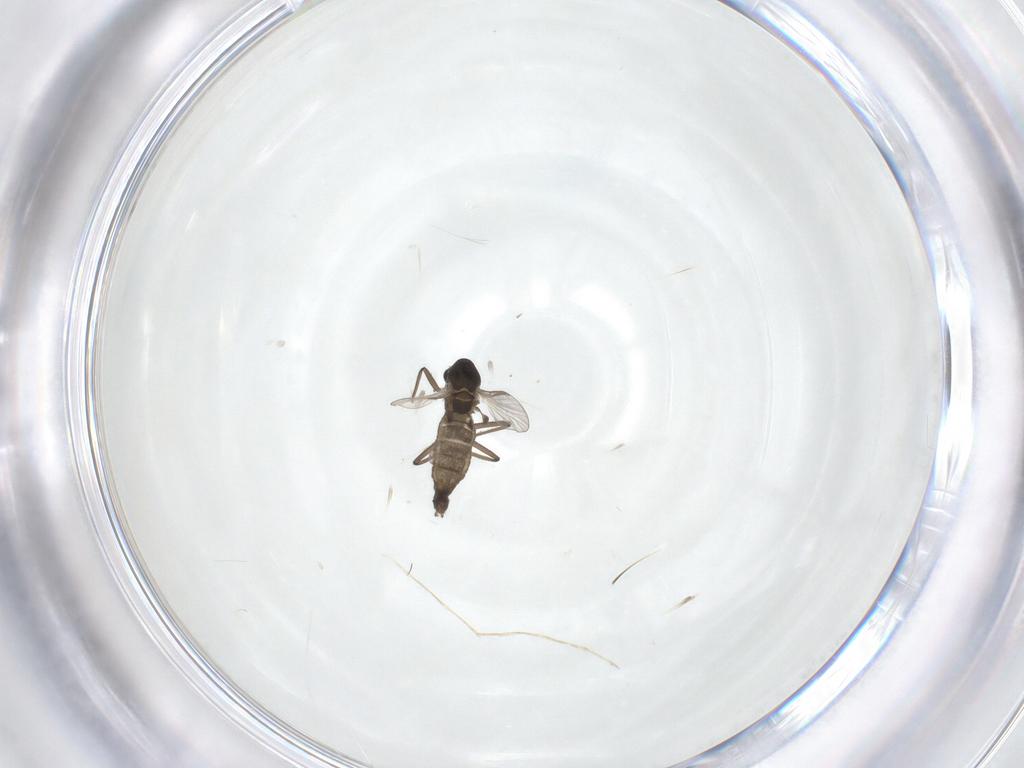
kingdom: Animalia
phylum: Arthropoda
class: Insecta
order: Diptera
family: Chironomidae
